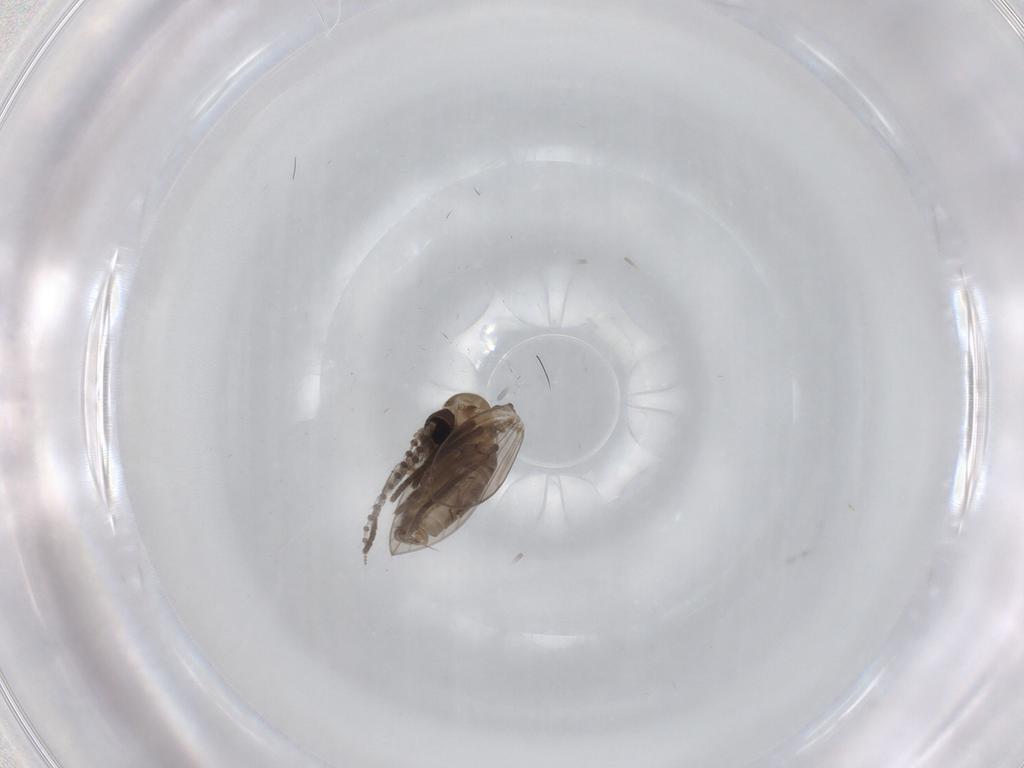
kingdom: Animalia
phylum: Arthropoda
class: Insecta
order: Diptera
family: Psychodidae
